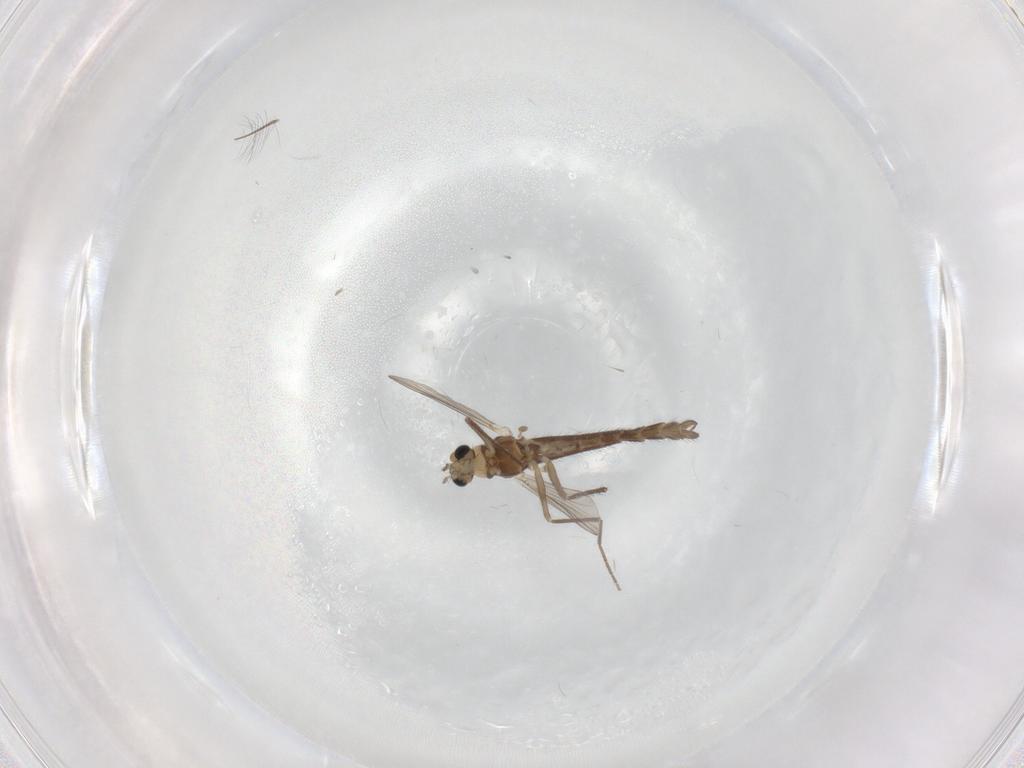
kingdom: Animalia
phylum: Arthropoda
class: Insecta
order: Diptera
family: Chironomidae
